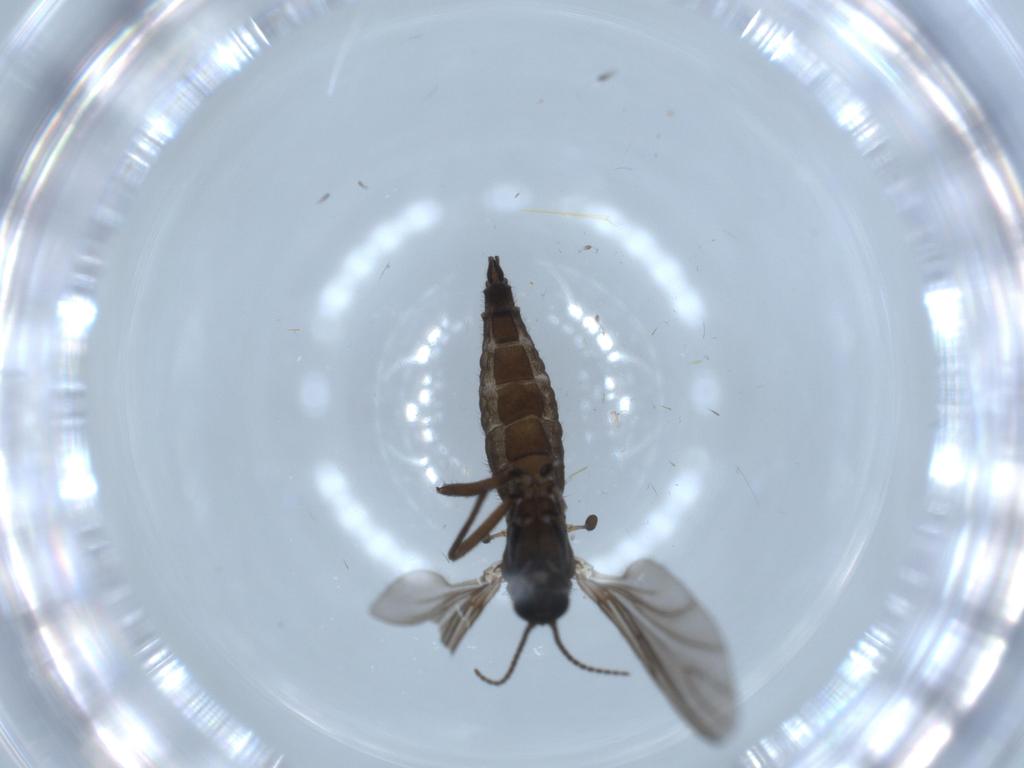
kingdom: Animalia
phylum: Arthropoda
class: Insecta
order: Diptera
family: Sciaridae
